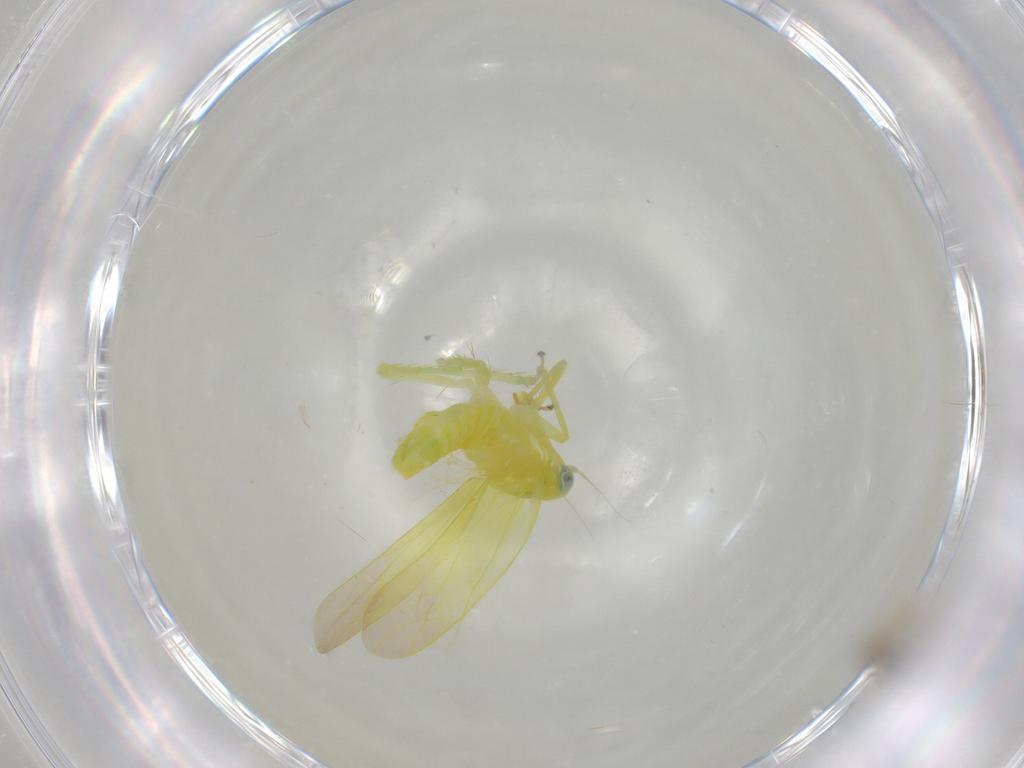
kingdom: Animalia
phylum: Arthropoda
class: Insecta
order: Hemiptera
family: Cicadellidae
